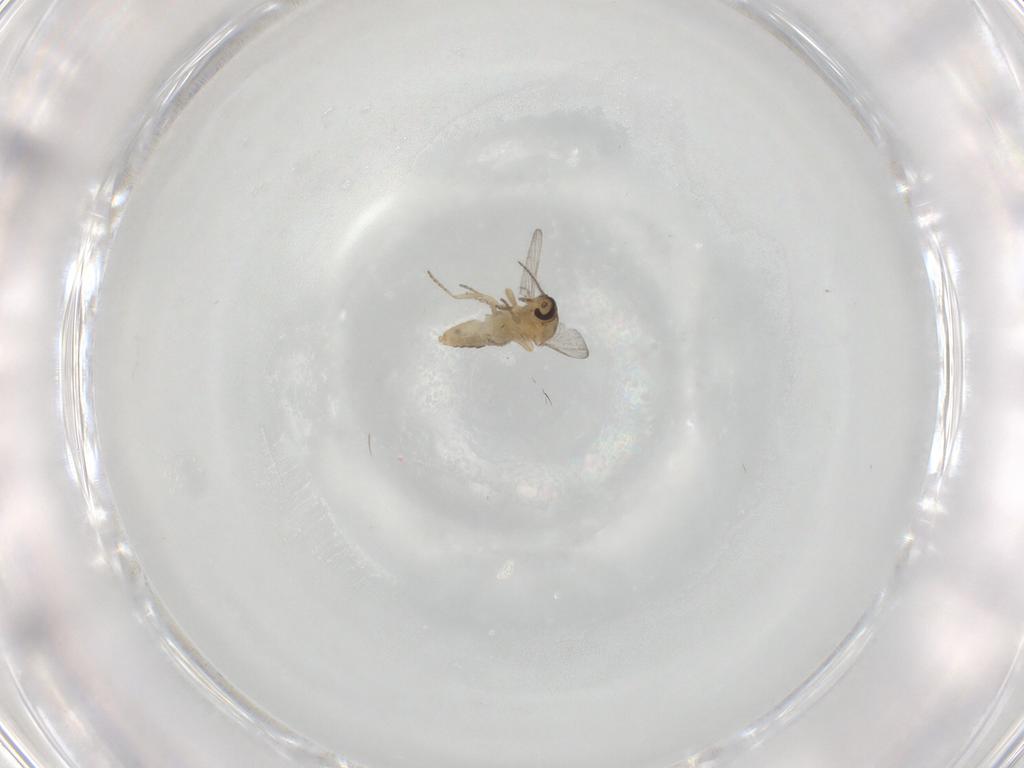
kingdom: Animalia
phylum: Arthropoda
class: Insecta
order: Diptera
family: Ceratopogonidae
